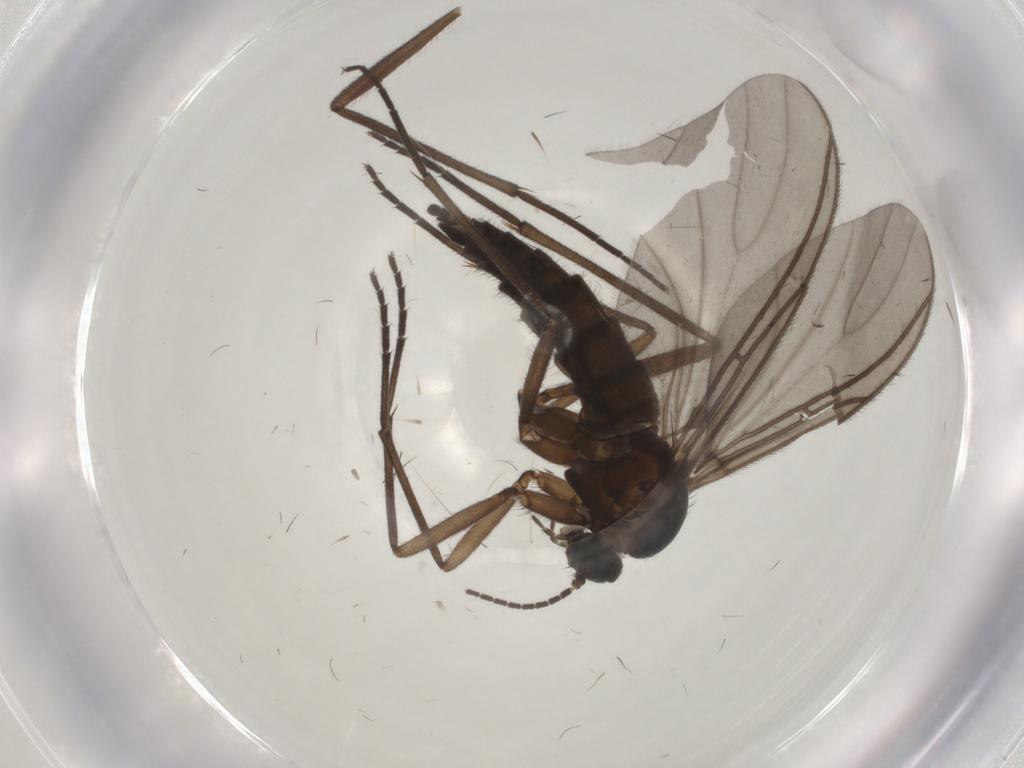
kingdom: Animalia
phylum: Arthropoda
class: Insecta
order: Diptera
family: Sciaridae
